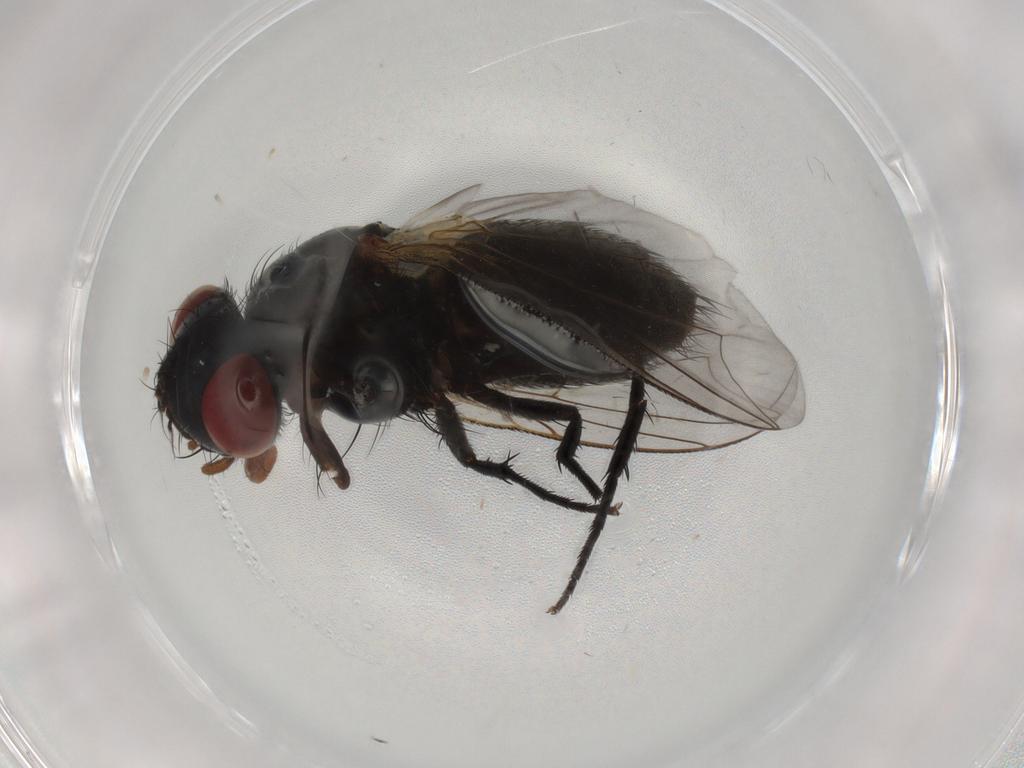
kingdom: Animalia
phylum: Arthropoda
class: Insecta
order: Diptera
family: Sarcophagidae
